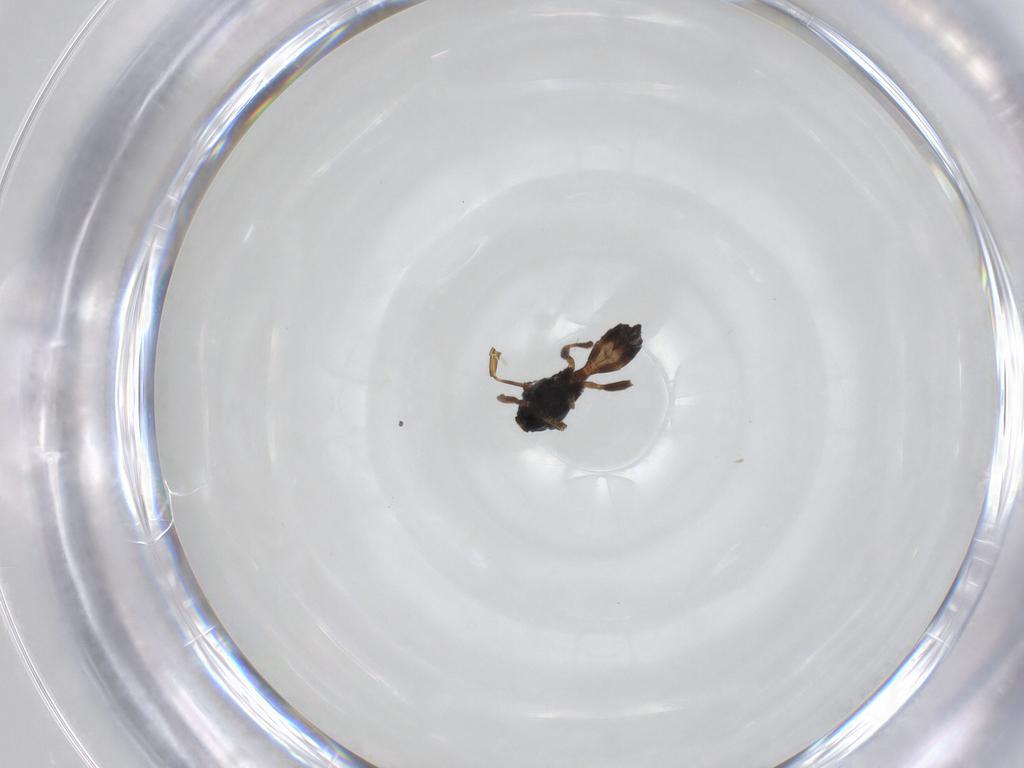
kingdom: Animalia
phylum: Arthropoda
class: Insecta
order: Hymenoptera
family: Braconidae
